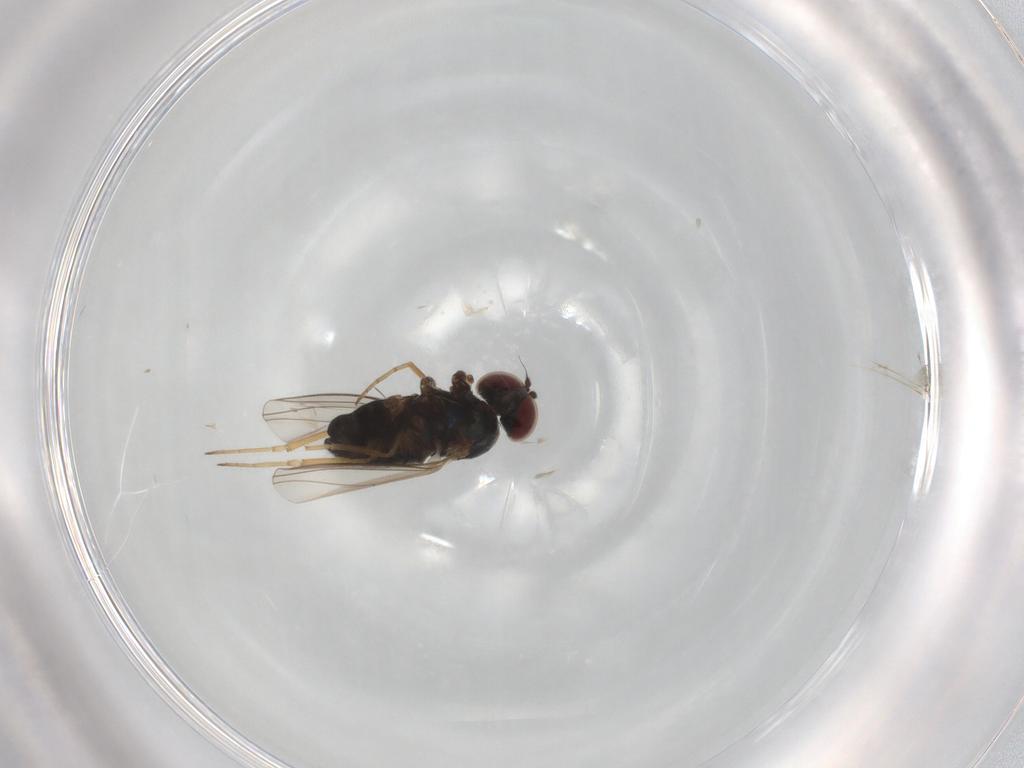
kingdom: Animalia
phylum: Arthropoda
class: Insecta
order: Diptera
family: Dolichopodidae
